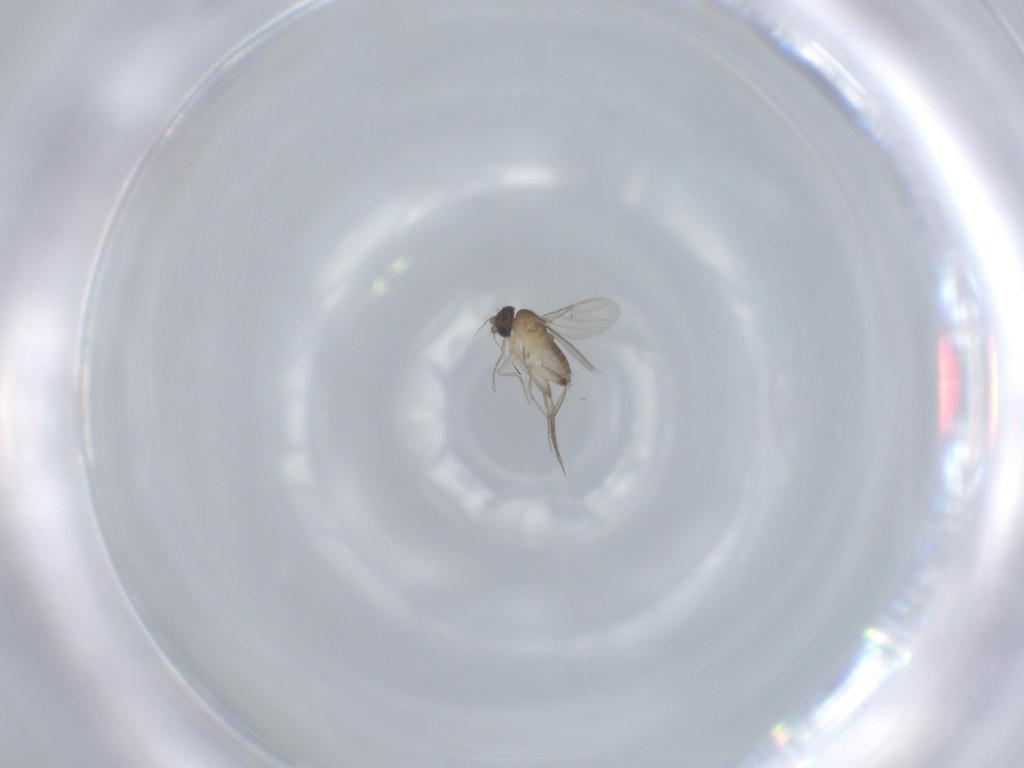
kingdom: Animalia
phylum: Arthropoda
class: Insecta
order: Diptera
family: Phoridae
